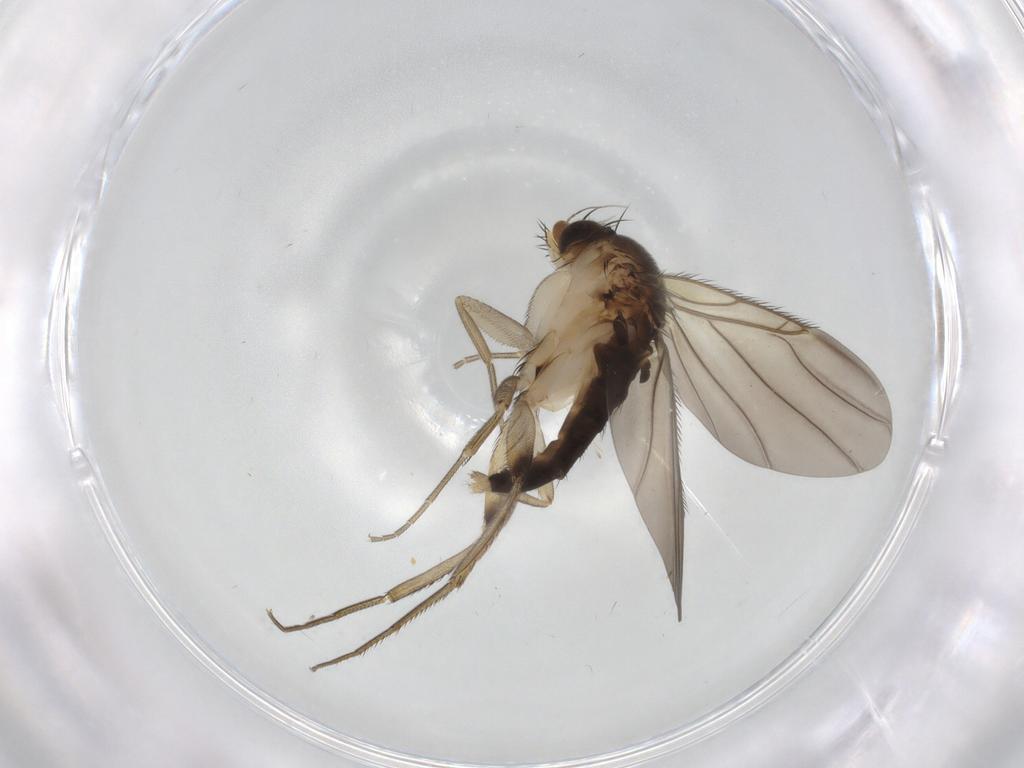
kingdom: Animalia
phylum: Arthropoda
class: Insecta
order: Diptera
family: Phoridae
